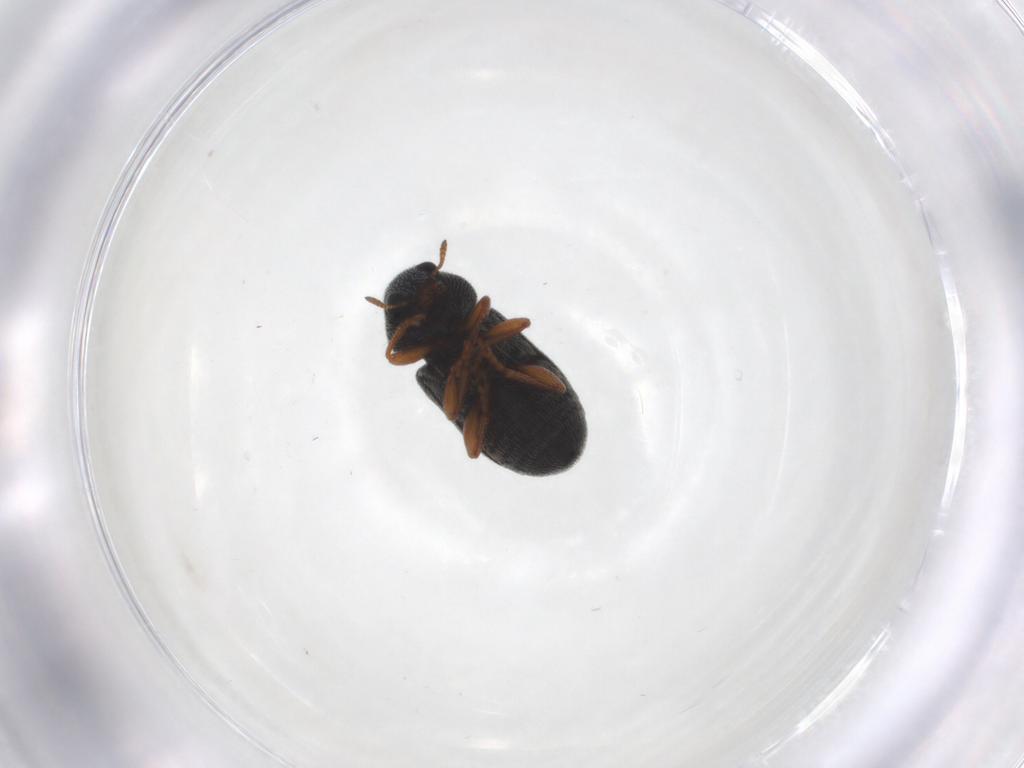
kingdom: Animalia
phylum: Arthropoda
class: Insecta
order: Coleoptera
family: Anthribidae
